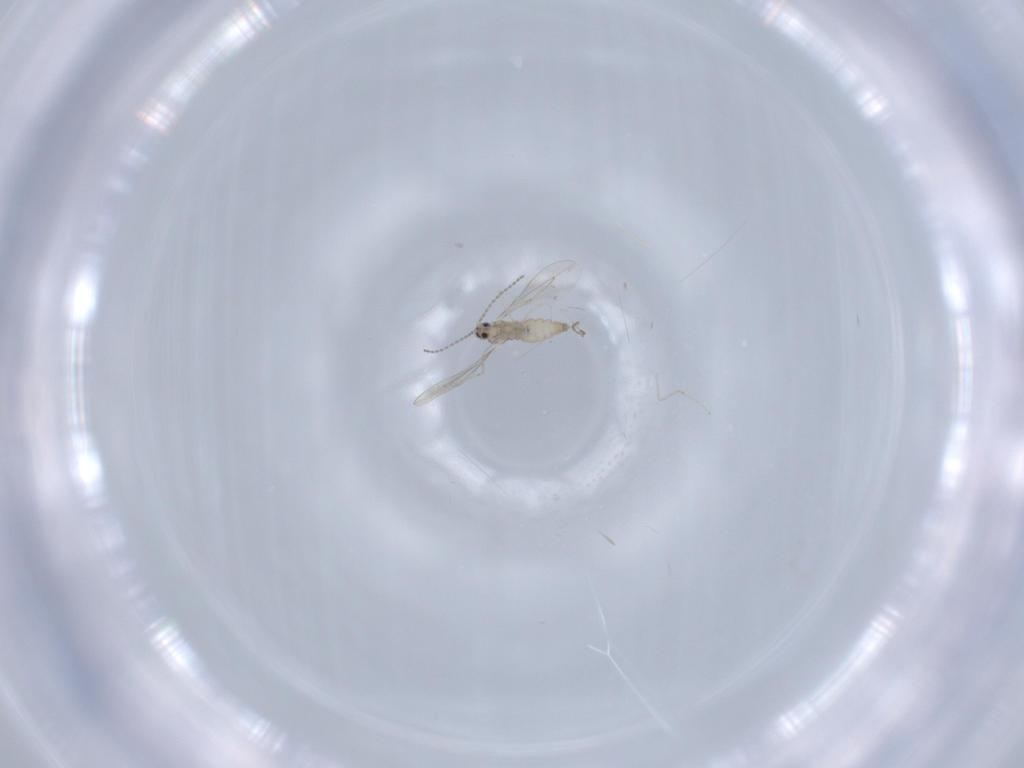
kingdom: Animalia
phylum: Arthropoda
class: Insecta
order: Diptera
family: Cecidomyiidae
